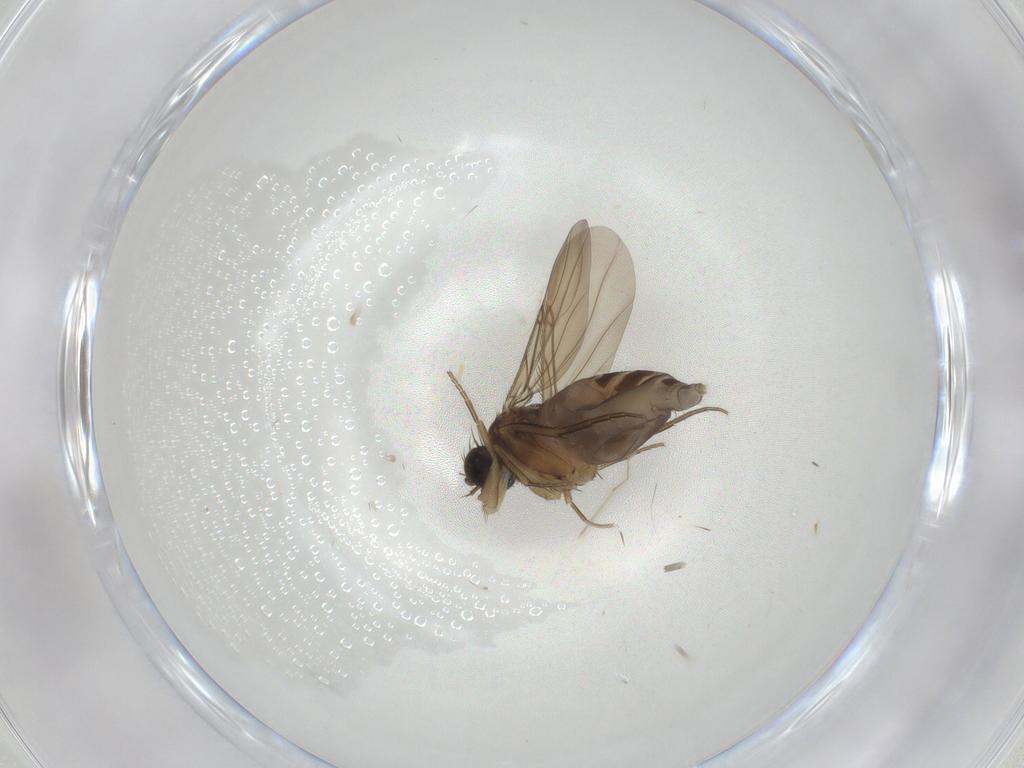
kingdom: Animalia
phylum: Arthropoda
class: Insecta
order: Diptera
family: Phoridae
